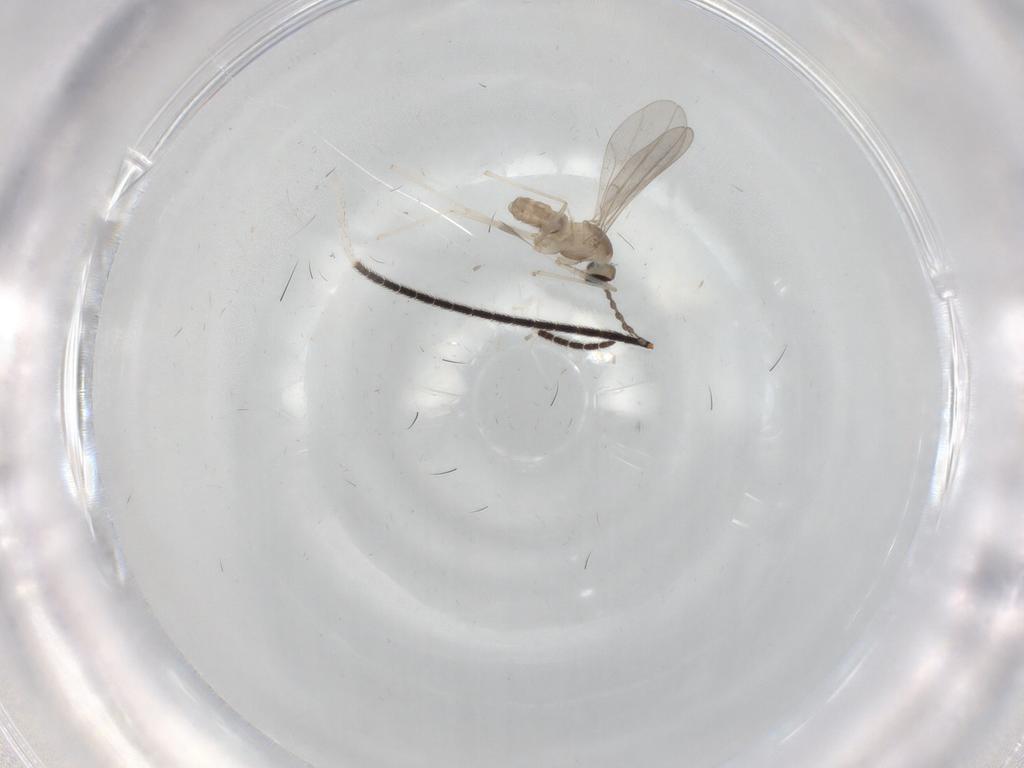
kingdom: Animalia
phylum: Arthropoda
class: Insecta
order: Diptera
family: Cecidomyiidae
